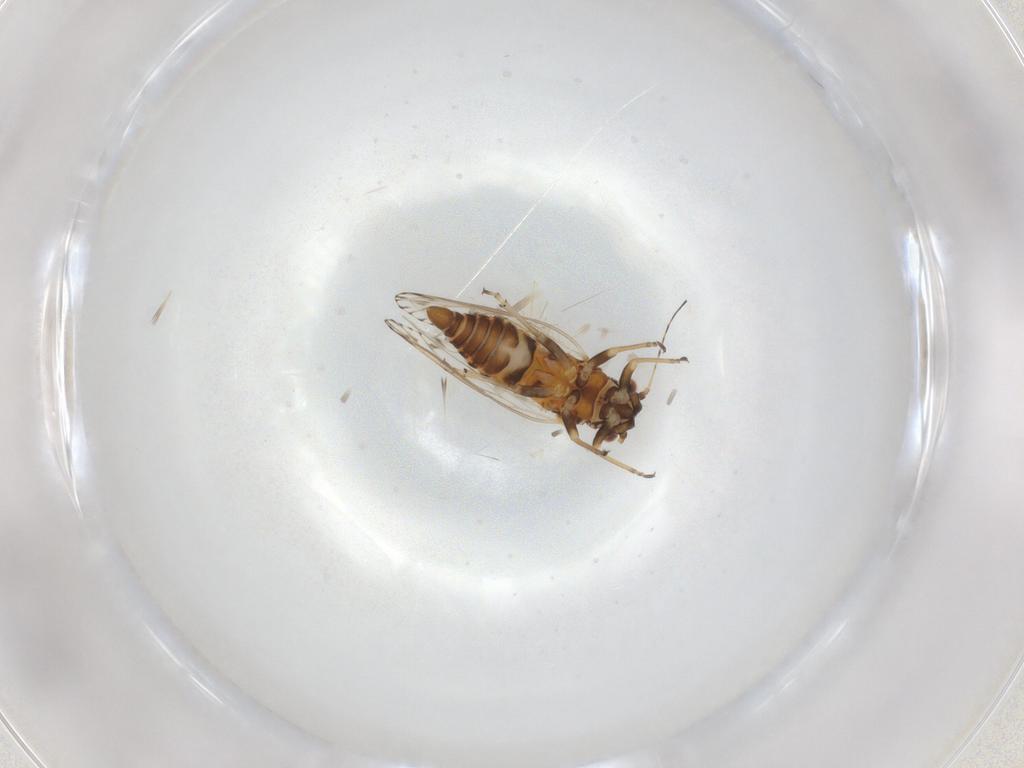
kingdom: Animalia
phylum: Arthropoda
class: Insecta
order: Hemiptera
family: Psyllidae
